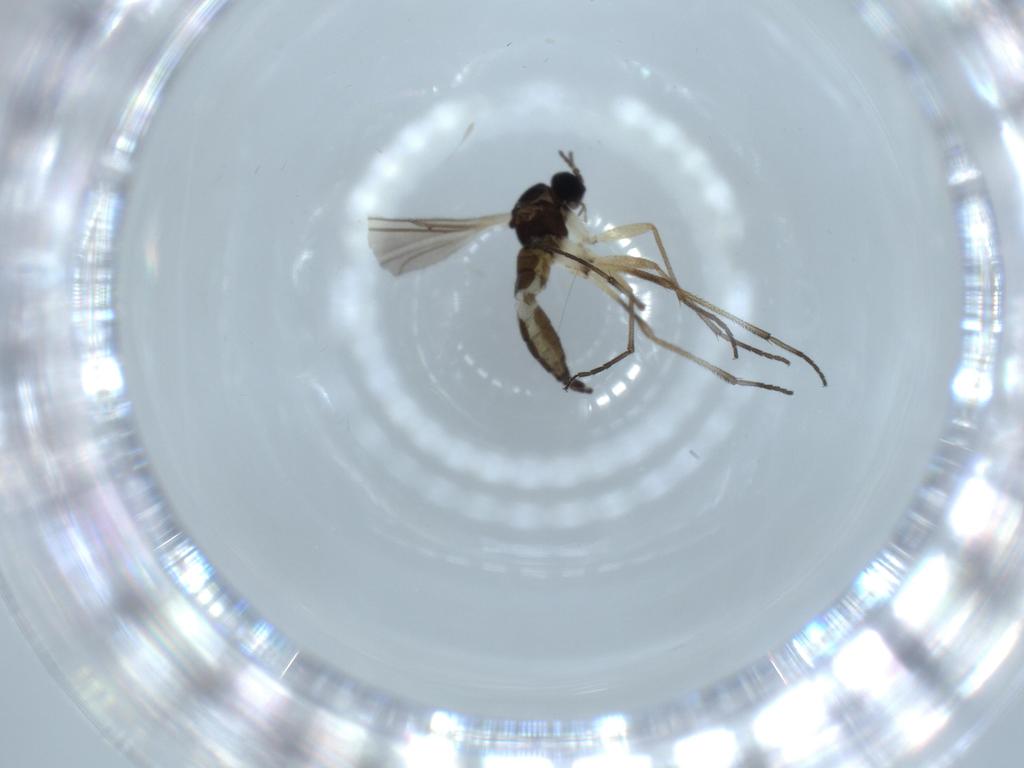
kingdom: Animalia
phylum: Arthropoda
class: Insecta
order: Diptera
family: Sciaridae
